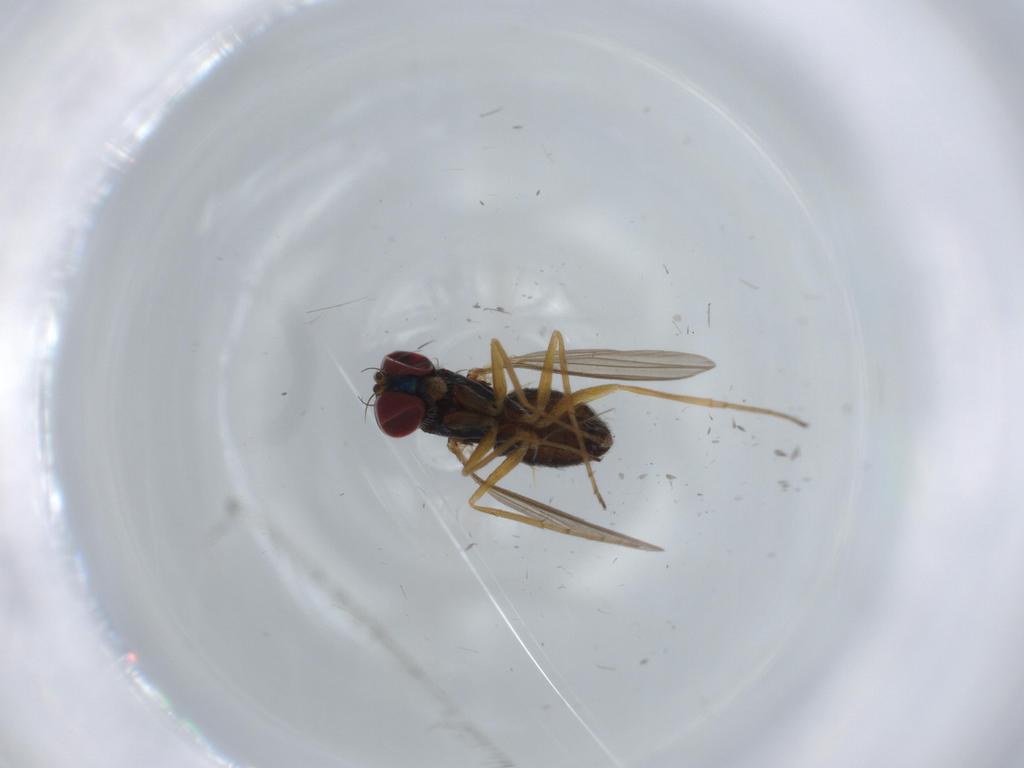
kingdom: Animalia
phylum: Arthropoda
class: Insecta
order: Diptera
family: Dolichopodidae
